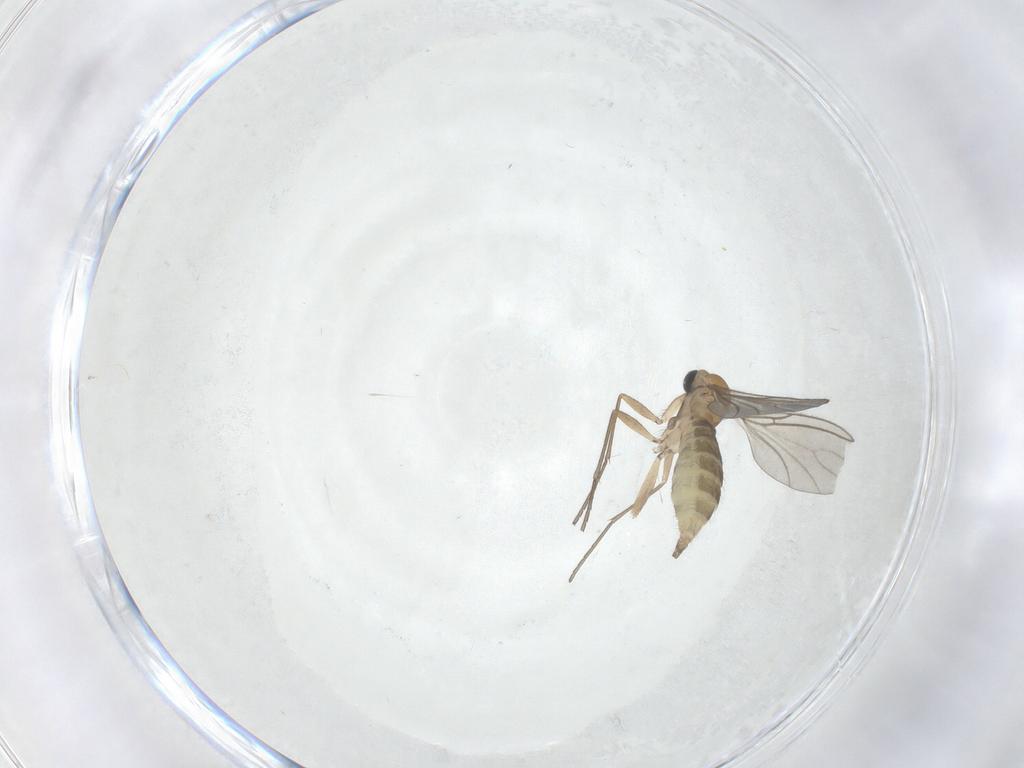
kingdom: Animalia
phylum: Arthropoda
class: Insecta
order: Diptera
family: Sciaridae
